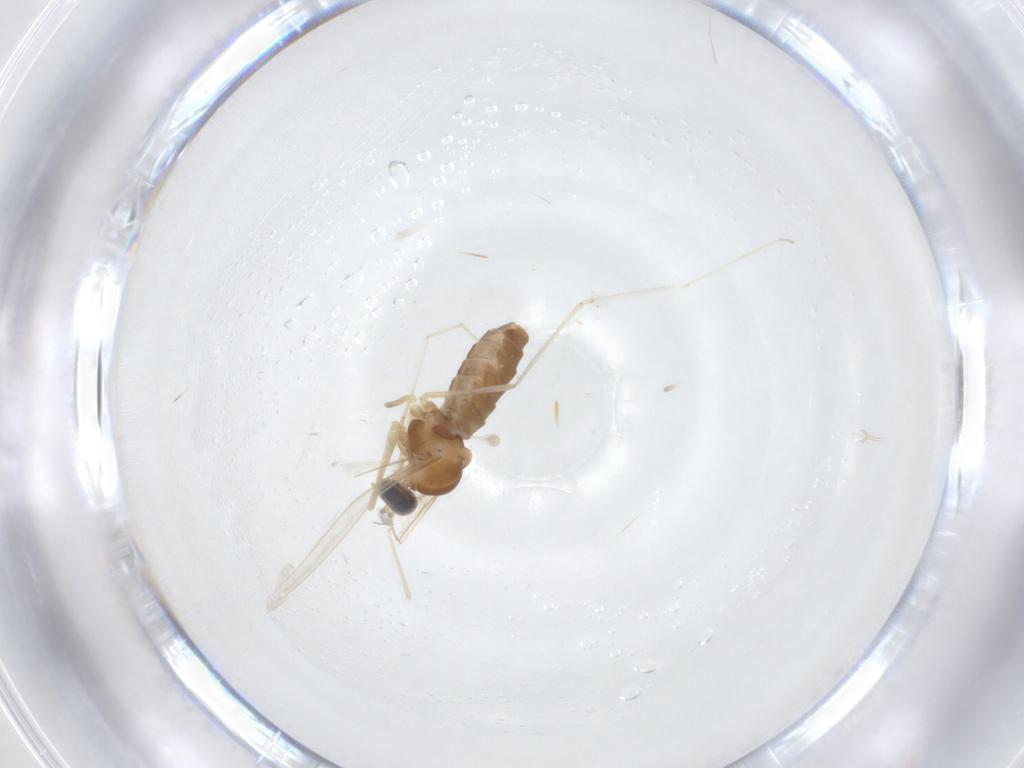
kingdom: Animalia
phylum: Arthropoda
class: Insecta
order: Diptera
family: Cecidomyiidae
